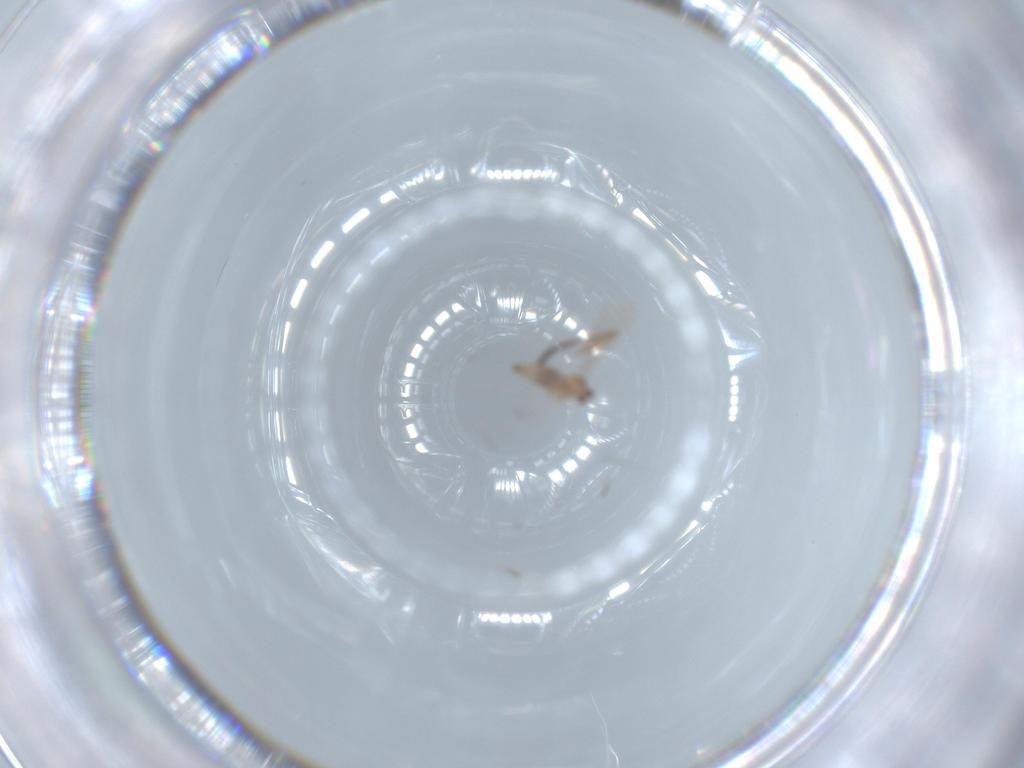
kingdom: Animalia
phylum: Arthropoda
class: Insecta
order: Diptera
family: Cecidomyiidae
